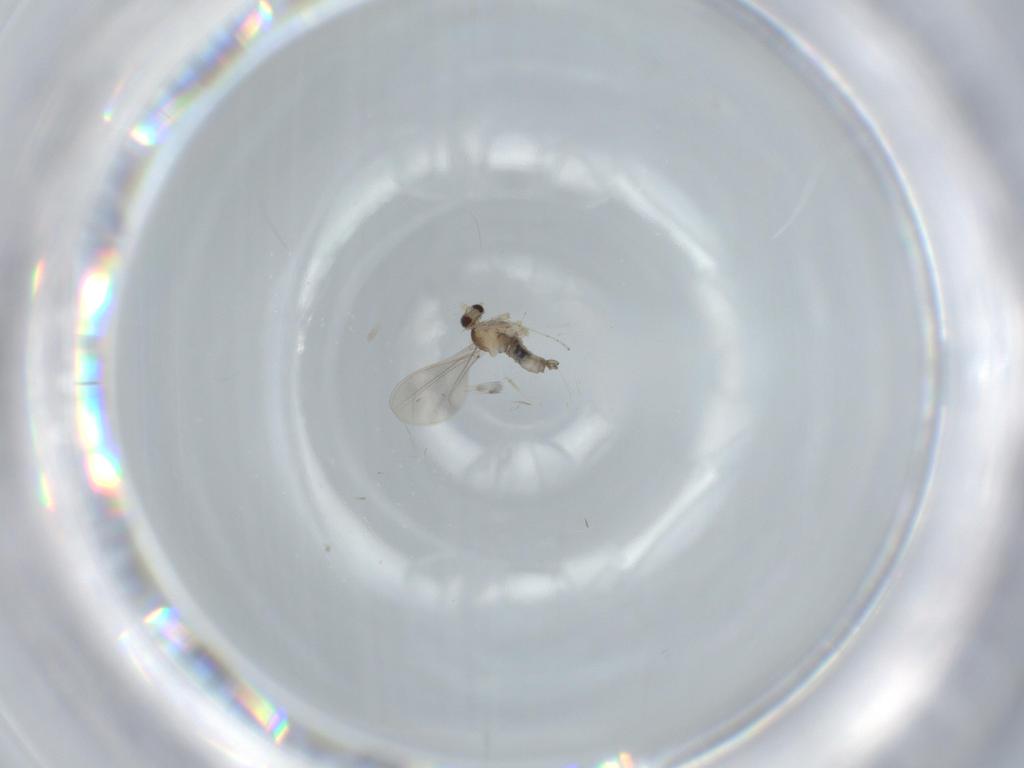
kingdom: Animalia
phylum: Arthropoda
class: Insecta
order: Diptera
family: Cecidomyiidae
